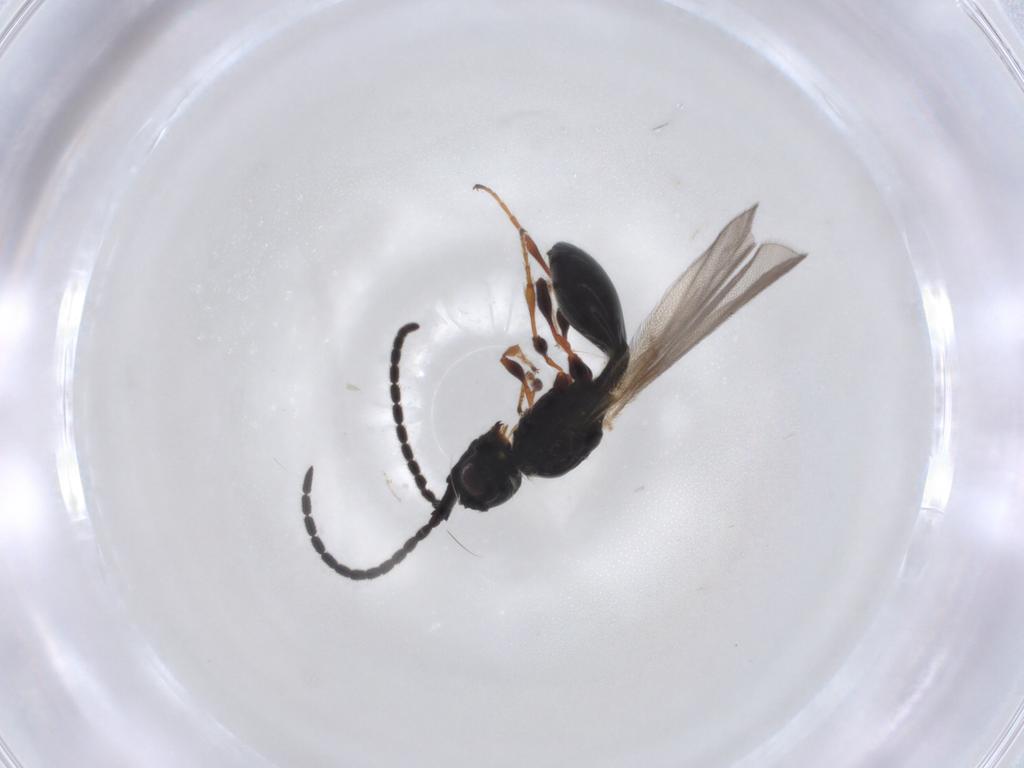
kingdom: Animalia
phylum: Arthropoda
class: Insecta
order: Hymenoptera
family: Diapriidae
